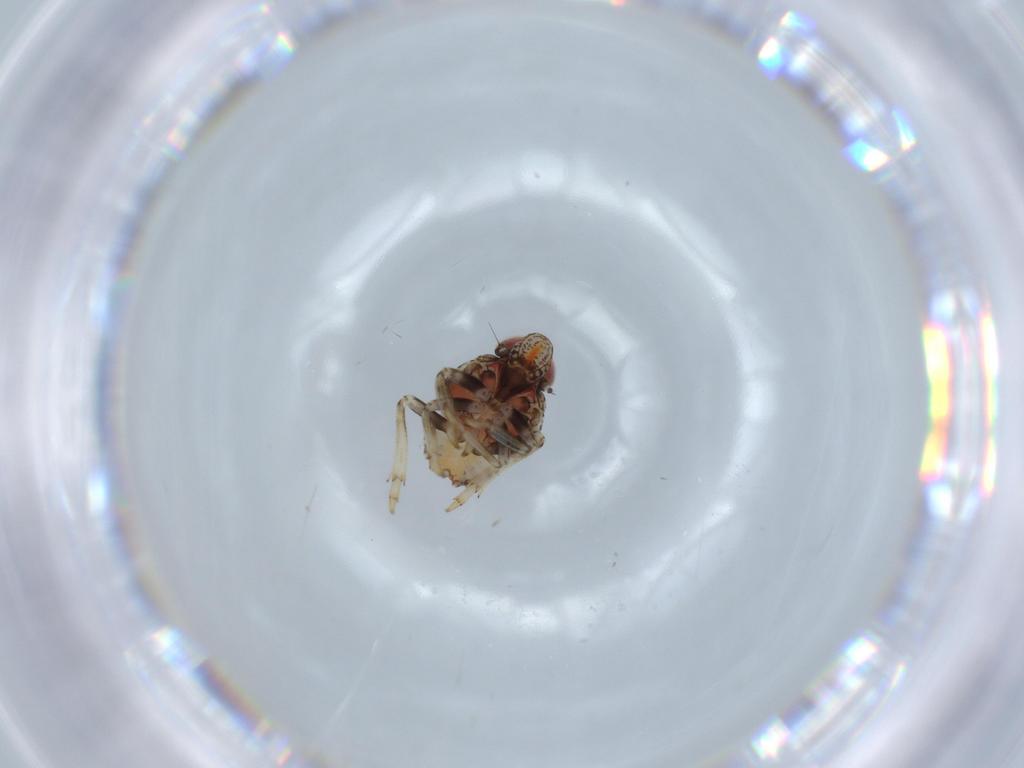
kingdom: Animalia
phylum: Arthropoda
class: Insecta
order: Hemiptera
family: Issidae
